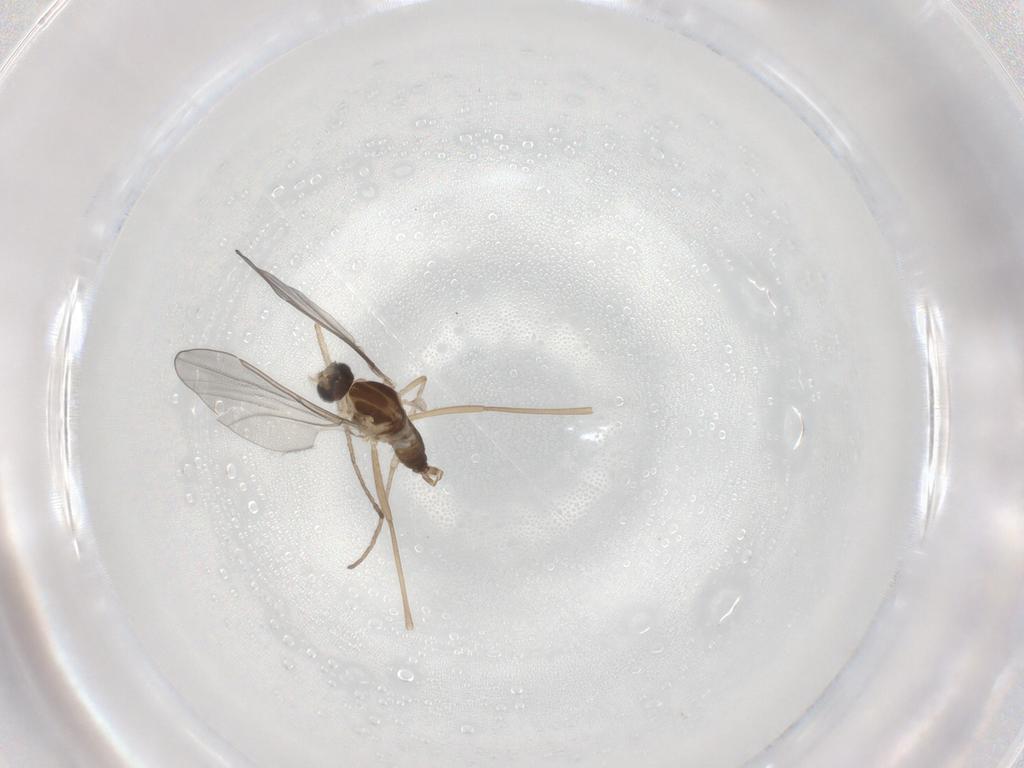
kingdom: Animalia
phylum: Arthropoda
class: Insecta
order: Diptera
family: Cecidomyiidae
